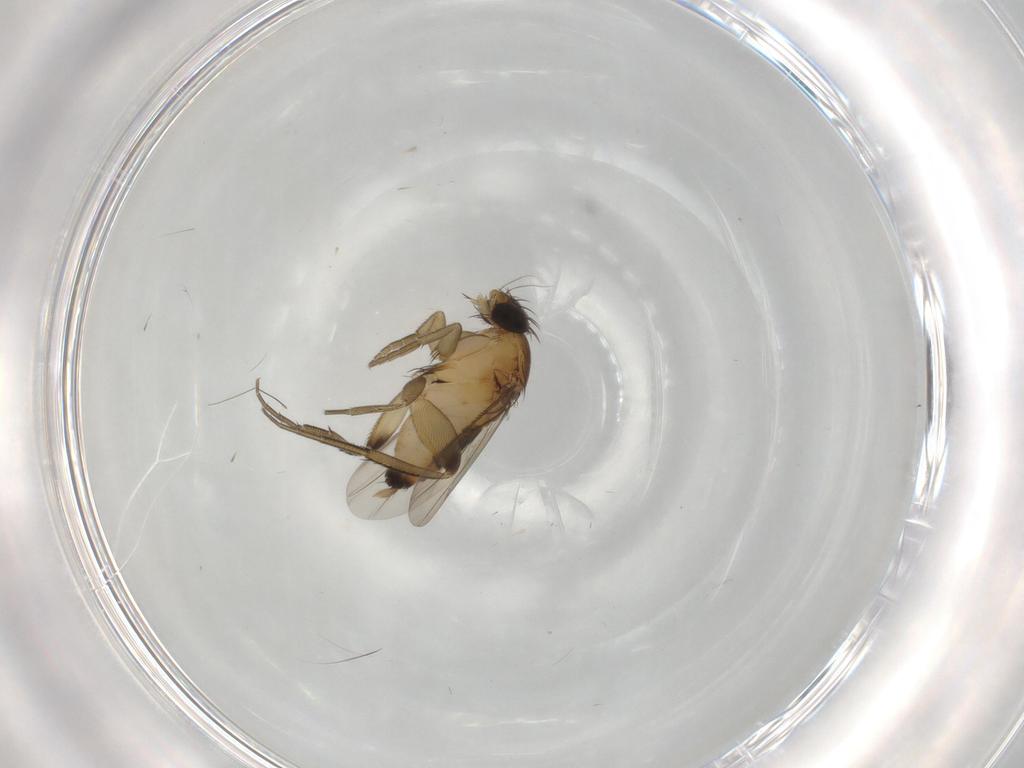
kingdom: Animalia
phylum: Arthropoda
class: Insecta
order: Diptera
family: Phoridae
